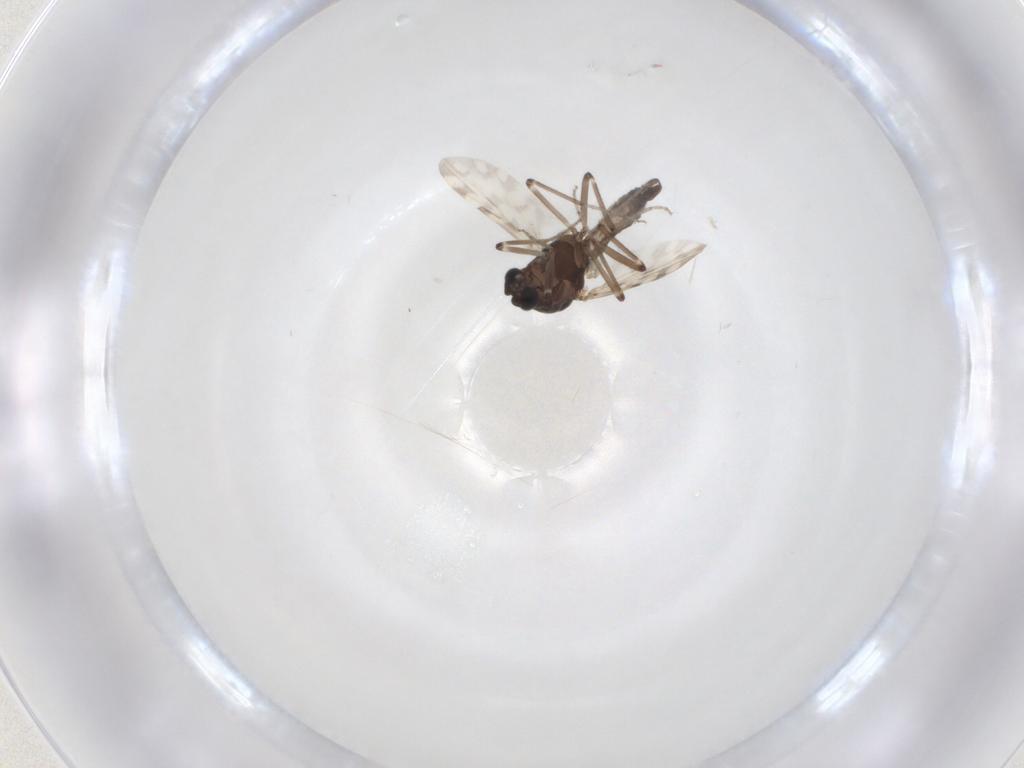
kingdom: Animalia
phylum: Arthropoda
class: Insecta
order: Diptera
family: Ceratopogonidae
